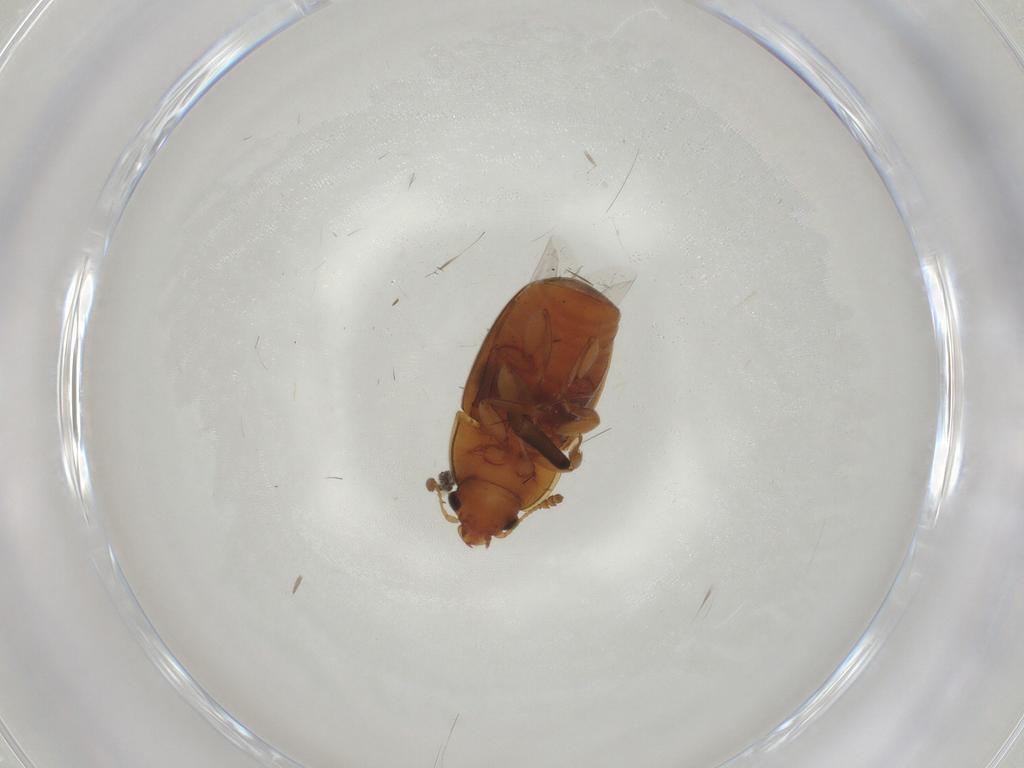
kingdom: Animalia
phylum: Arthropoda
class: Insecta
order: Coleoptera
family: Nitidulidae
